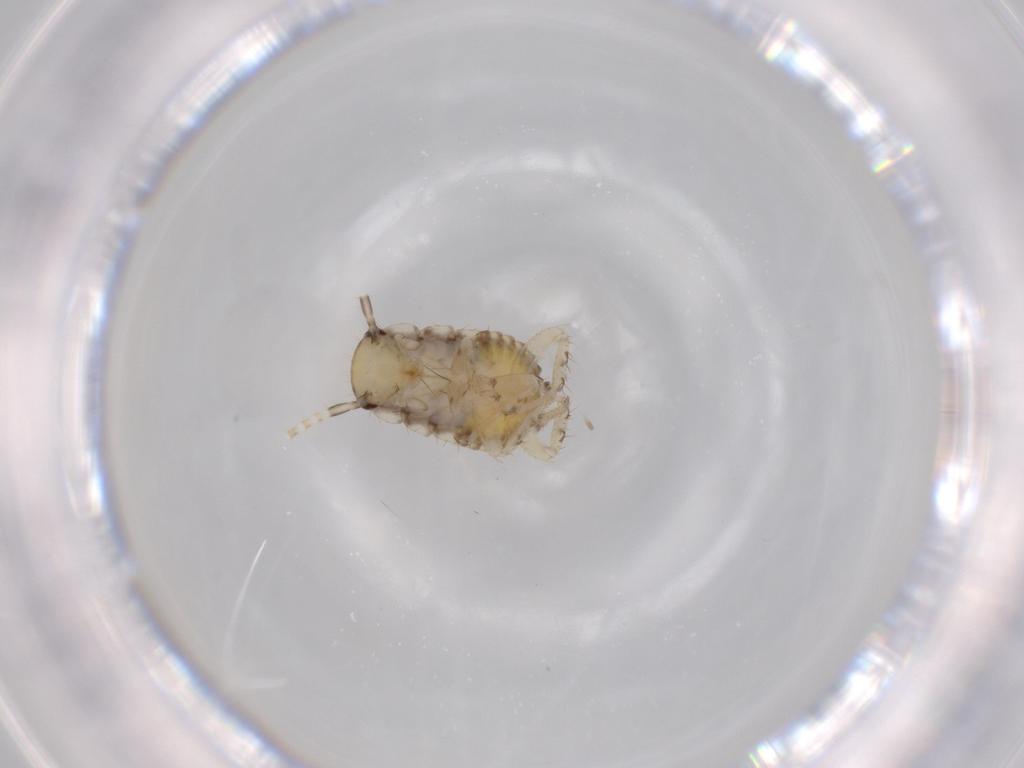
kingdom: Animalia
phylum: Arthropoda
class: Insecta
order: Blattodea
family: Ectobiidae
